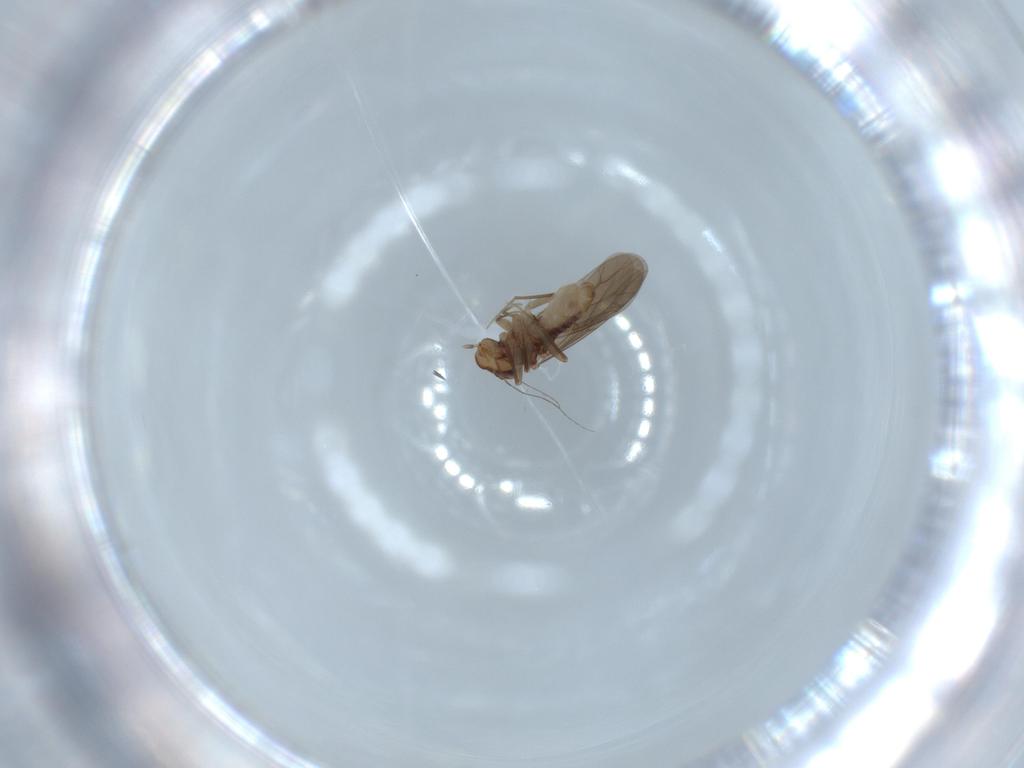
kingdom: Animalia
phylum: Arthropoda
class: Insecta
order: Psocodea
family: Lepidopsocidae
